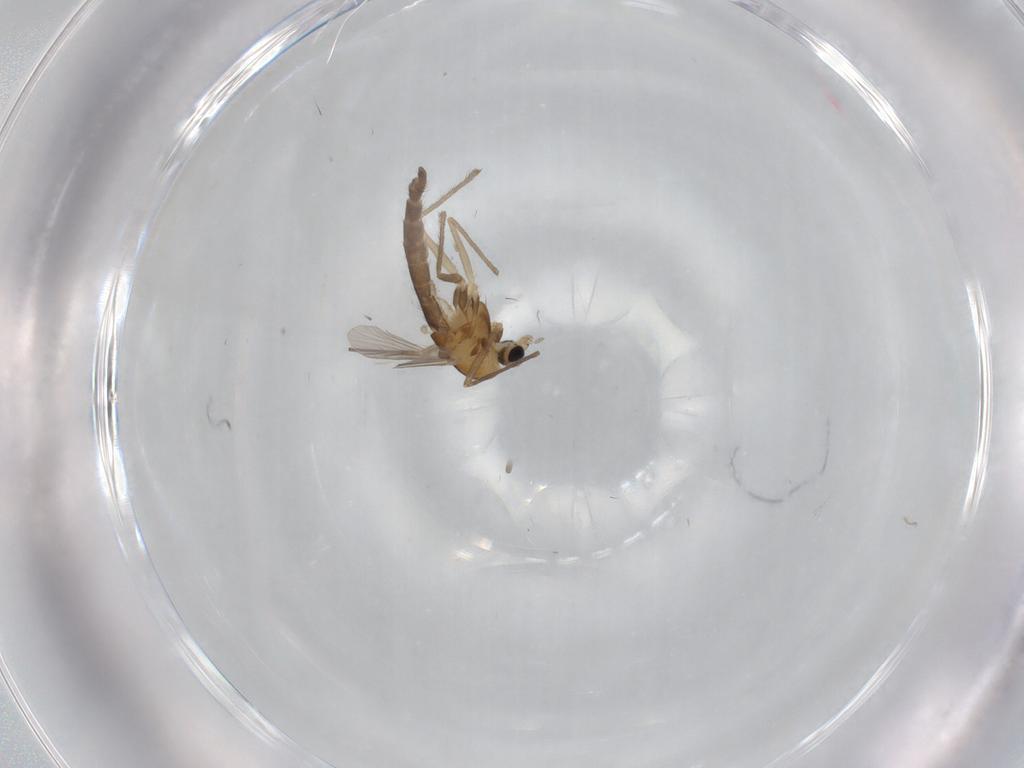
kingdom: Animalia
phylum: Arthropoda
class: Insecta
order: Diptera
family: Chironomidae
